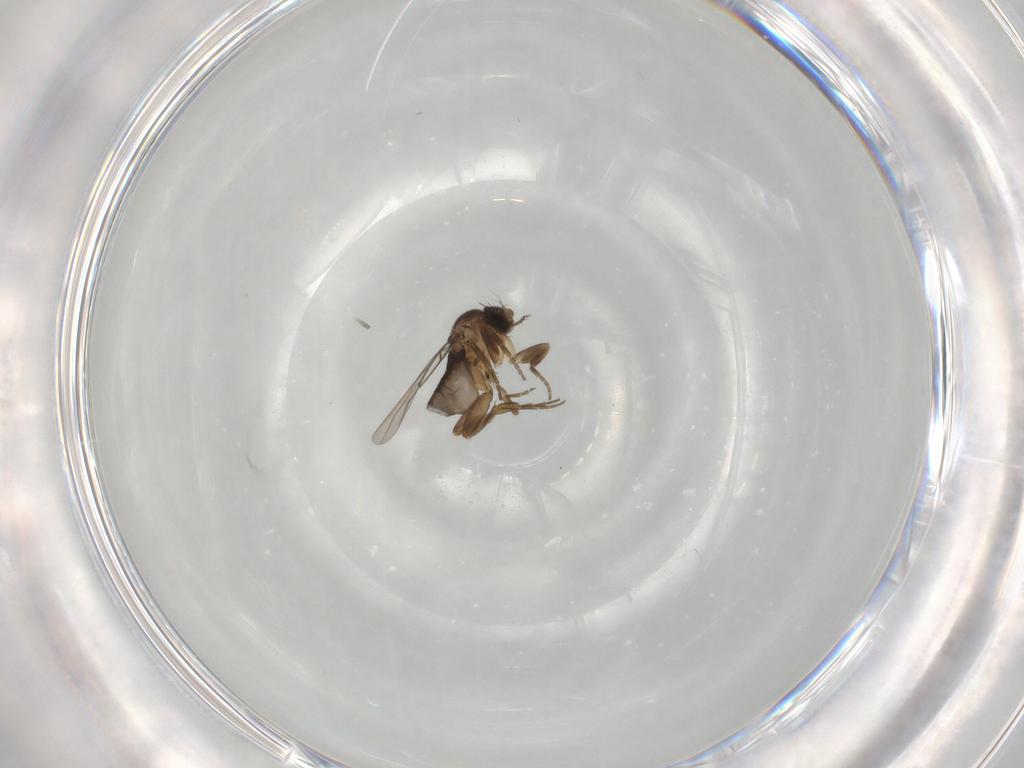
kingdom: Animalia
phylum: Arthropoda
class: Insecta
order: Diptera
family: Cecidomyiidae
